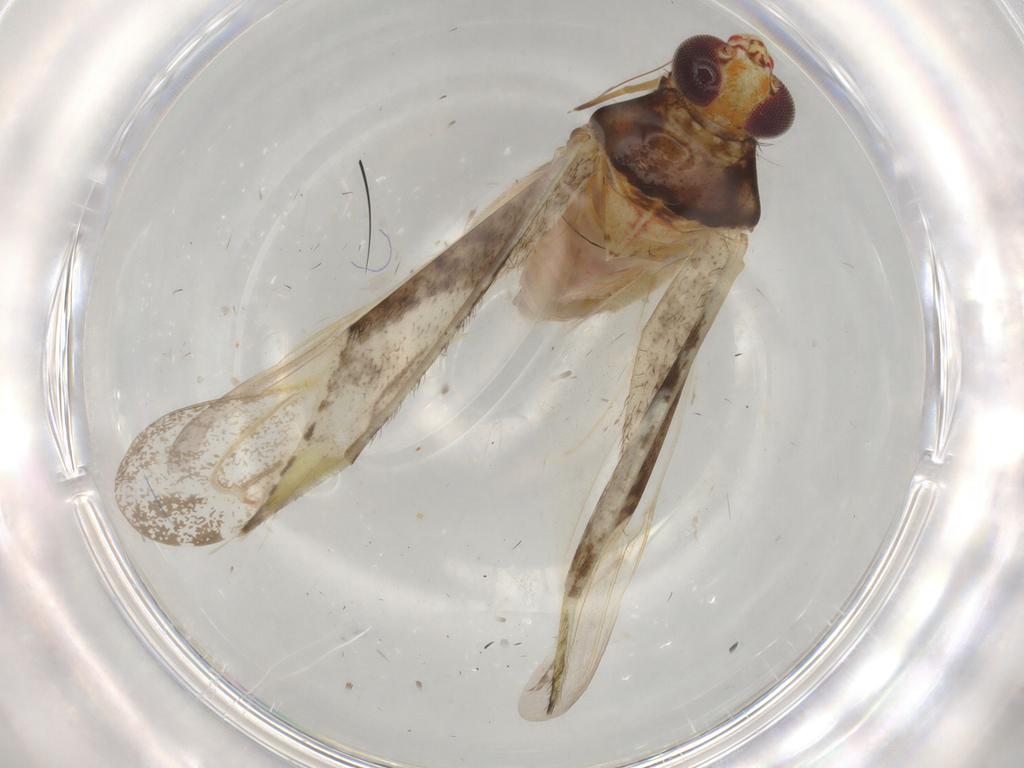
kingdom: Animalia
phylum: Arthropoda
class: Insecta
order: Hemiptera
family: Miridae
